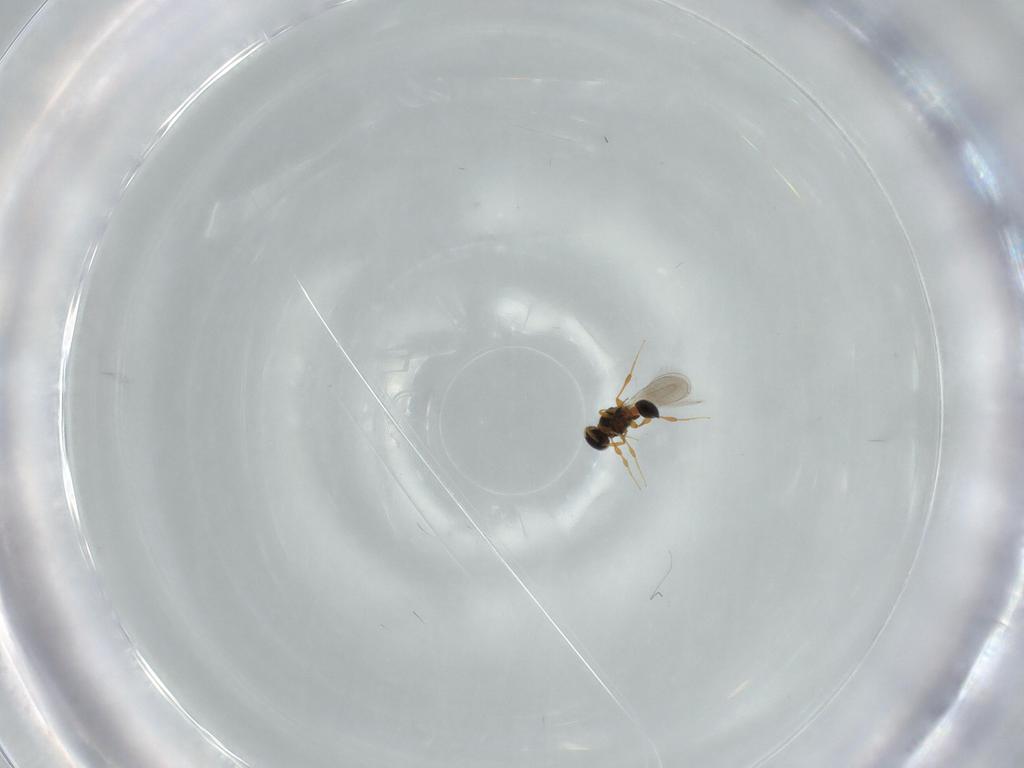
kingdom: Animalia
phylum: Arthropoda
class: Insecta
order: Hymenoptera
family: Platygastridae
